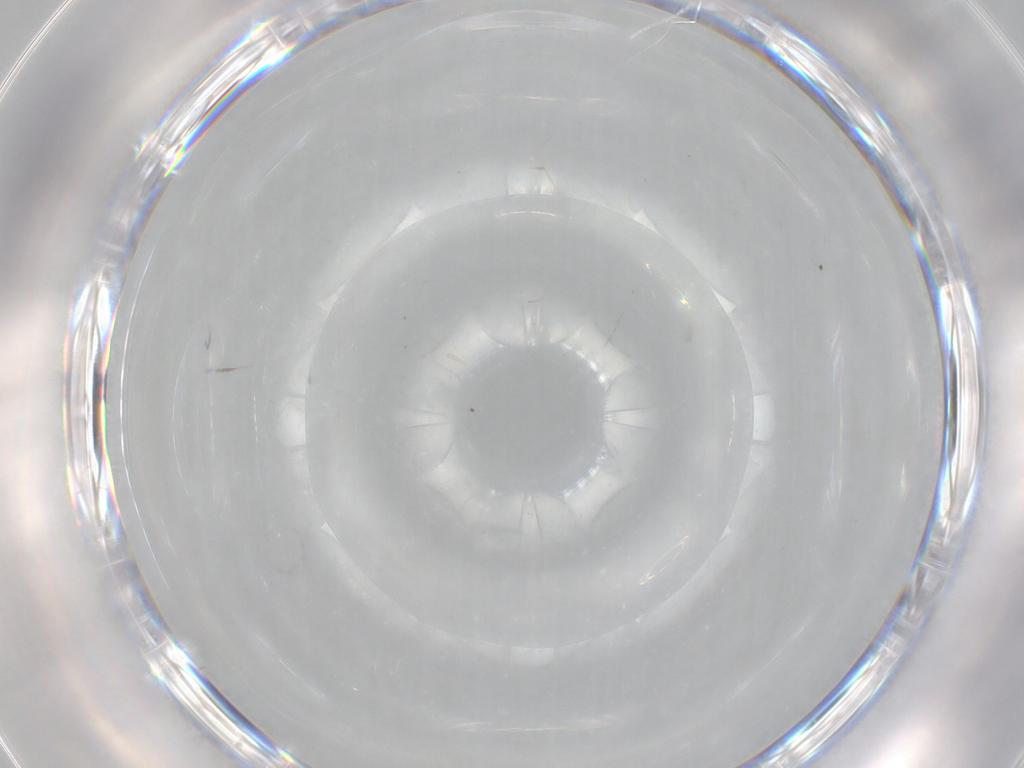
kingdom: Animalia
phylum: Arthropoda
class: Insecta
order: Diptera
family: Cecidomyiidae
